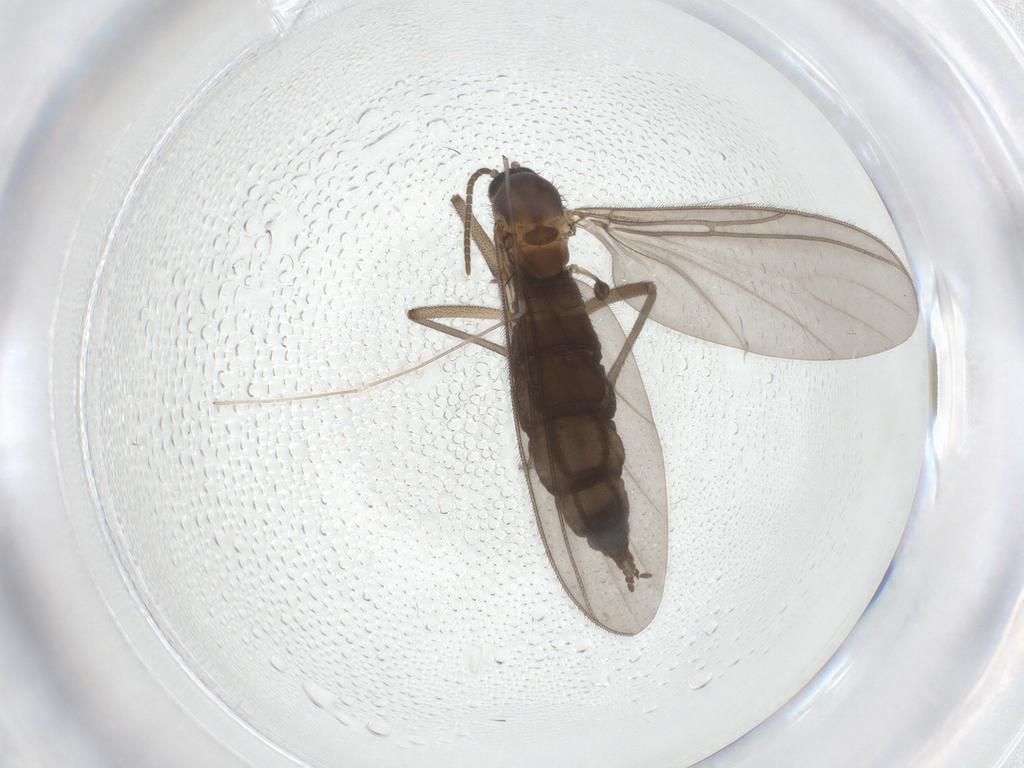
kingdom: Animalia
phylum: Arthropoda
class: Insecta
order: Diptera
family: Limoniidae
